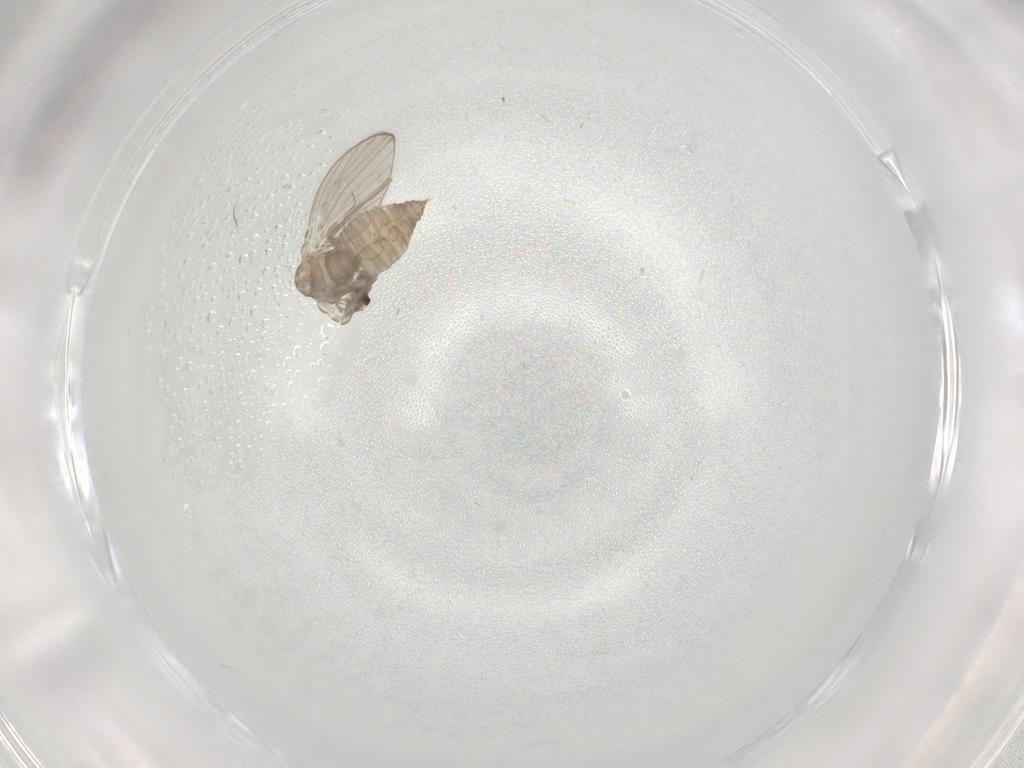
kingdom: Animalia
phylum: Arthropoda
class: Insecta
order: Diptera
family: Psychodidae
